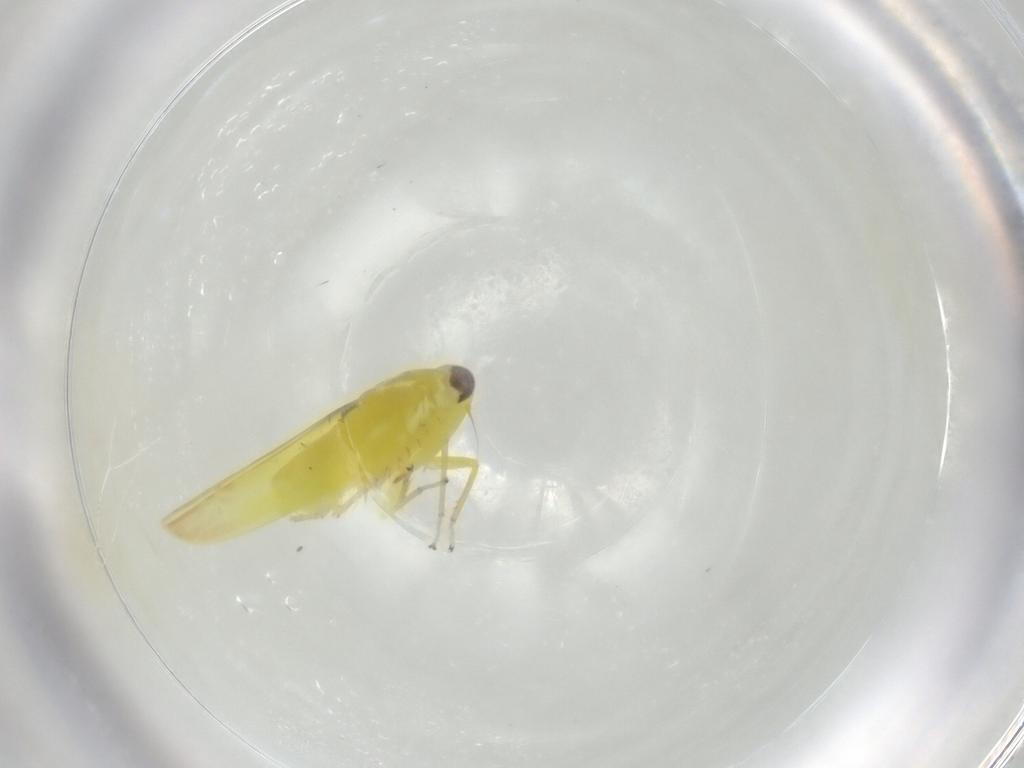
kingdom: Animalia
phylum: Arthropoda
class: Insecta
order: Hemiptera
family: Cicadellidae
